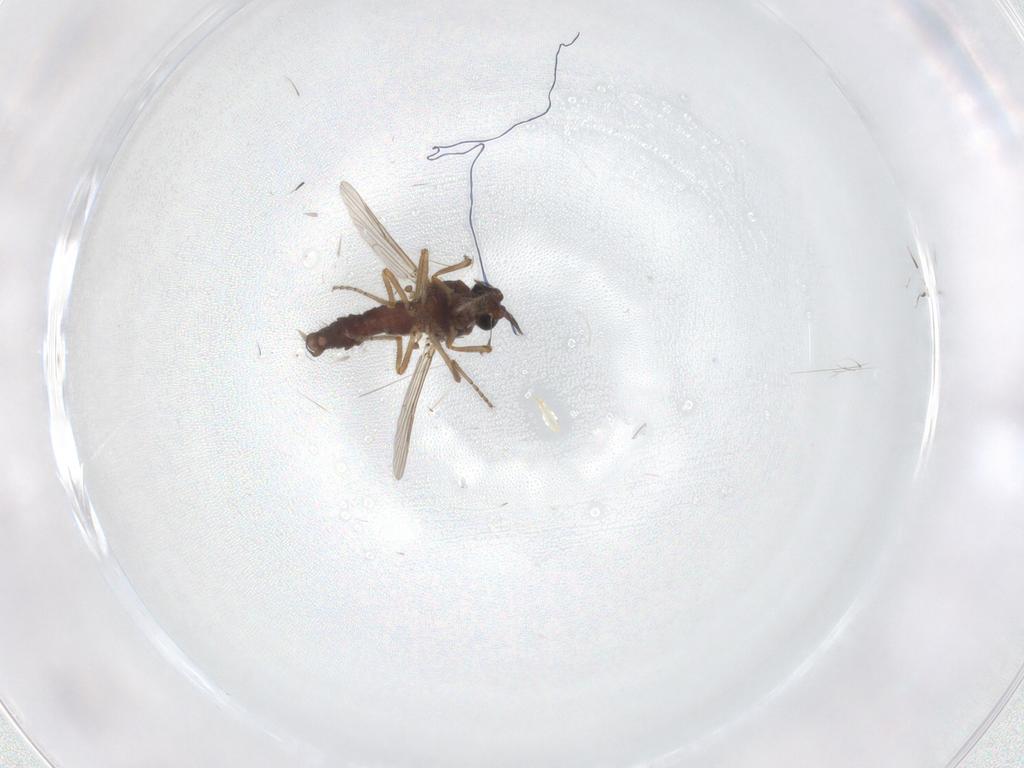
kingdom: Animalia
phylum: Arthropoda
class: Insecta
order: Diptera
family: Ceratopogonidae
